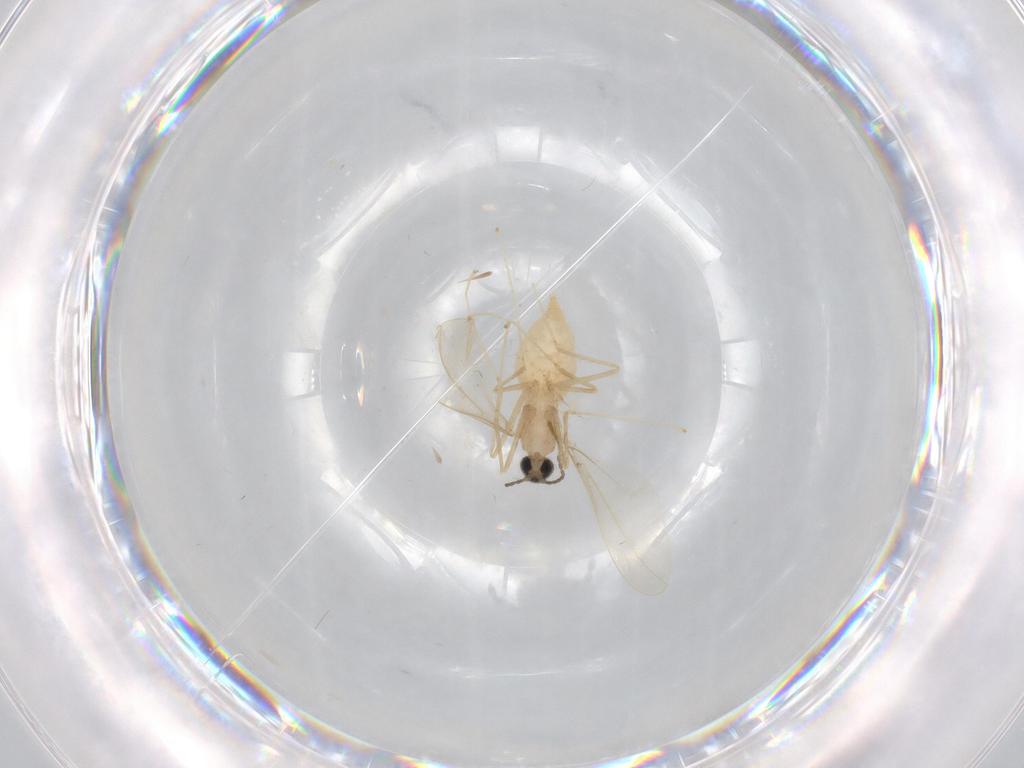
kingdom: Animalia
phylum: Arthropoda
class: Insecta
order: Diptera
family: Cecidomyiidae
